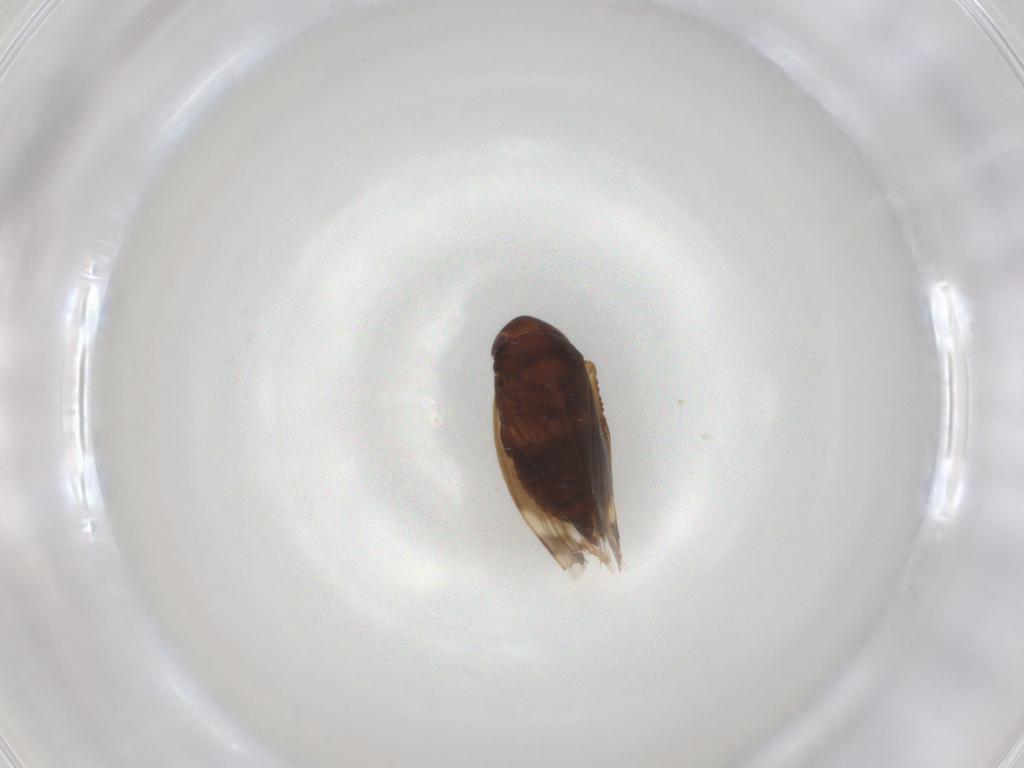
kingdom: Animalia
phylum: Arthropoda
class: Insecta
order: Hemiptera
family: Cicadellidae
